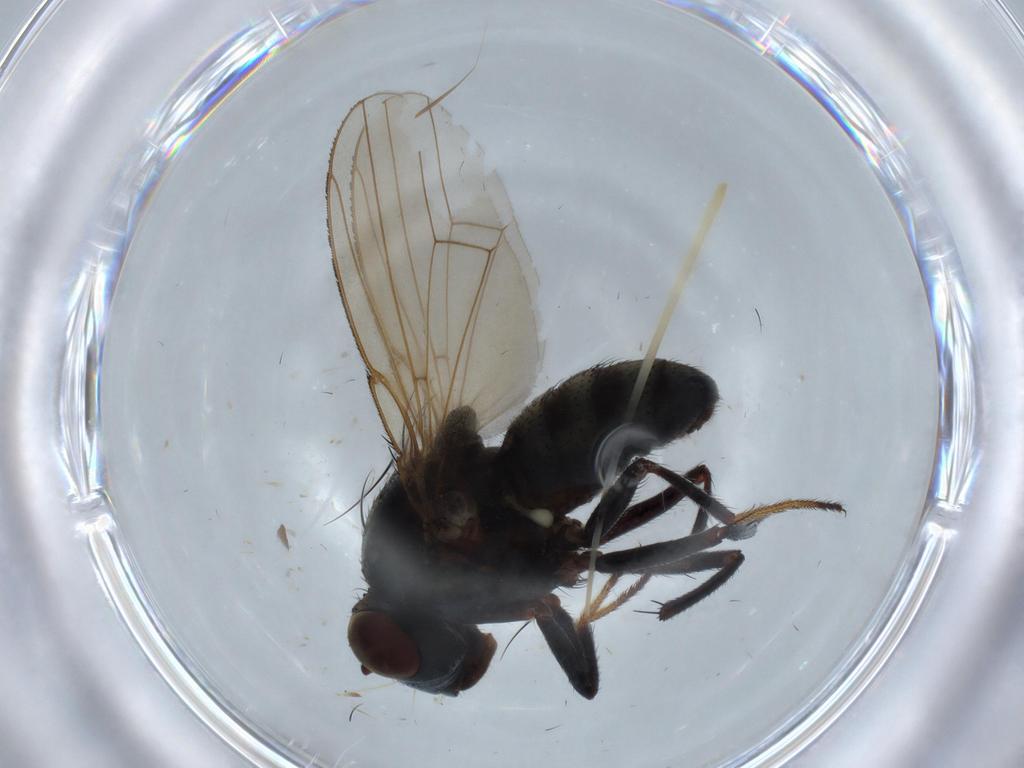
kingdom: Animalia
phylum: Arthropoda
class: Insecta
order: Diptera
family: Ephydridae
